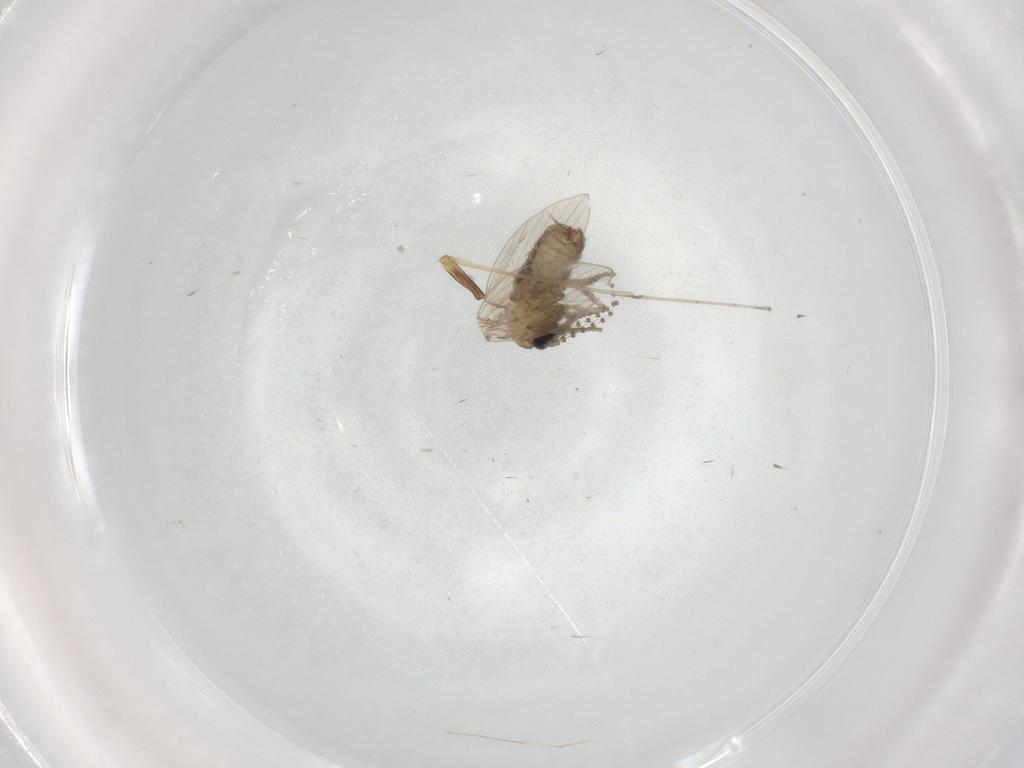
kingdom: Animalia
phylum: Arthropoda
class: Insecta
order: Diptera
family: Psychodidae
